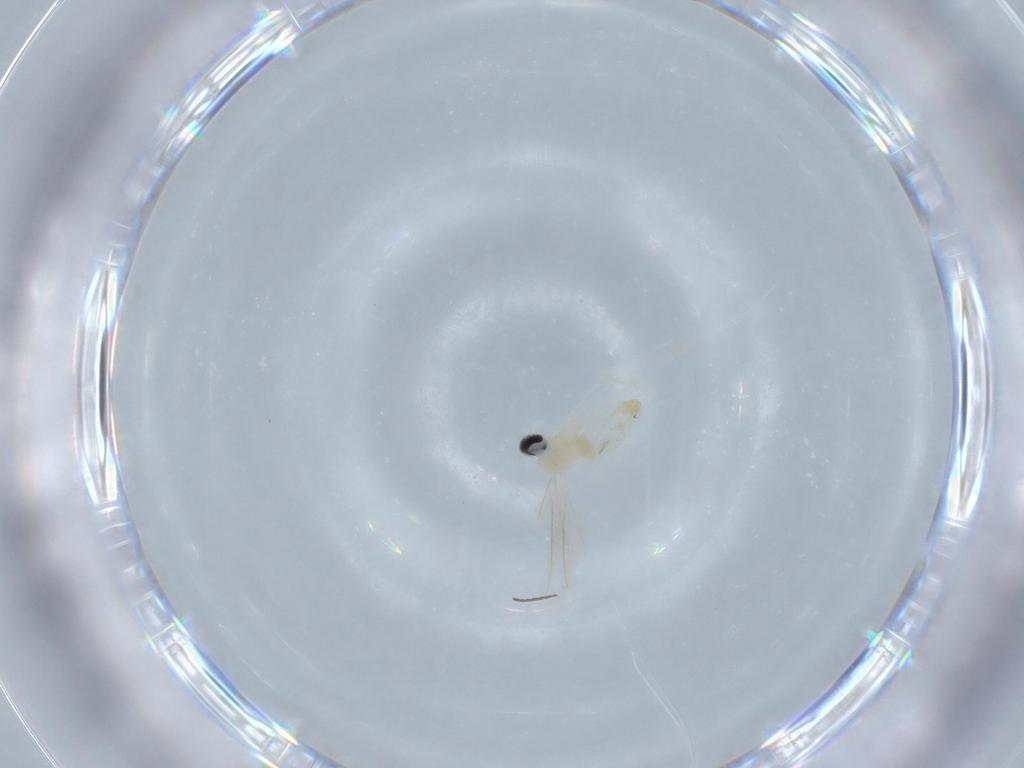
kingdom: Animalia
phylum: Arthropoda
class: Insecta
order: Diptera
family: Cecidomyiidae
